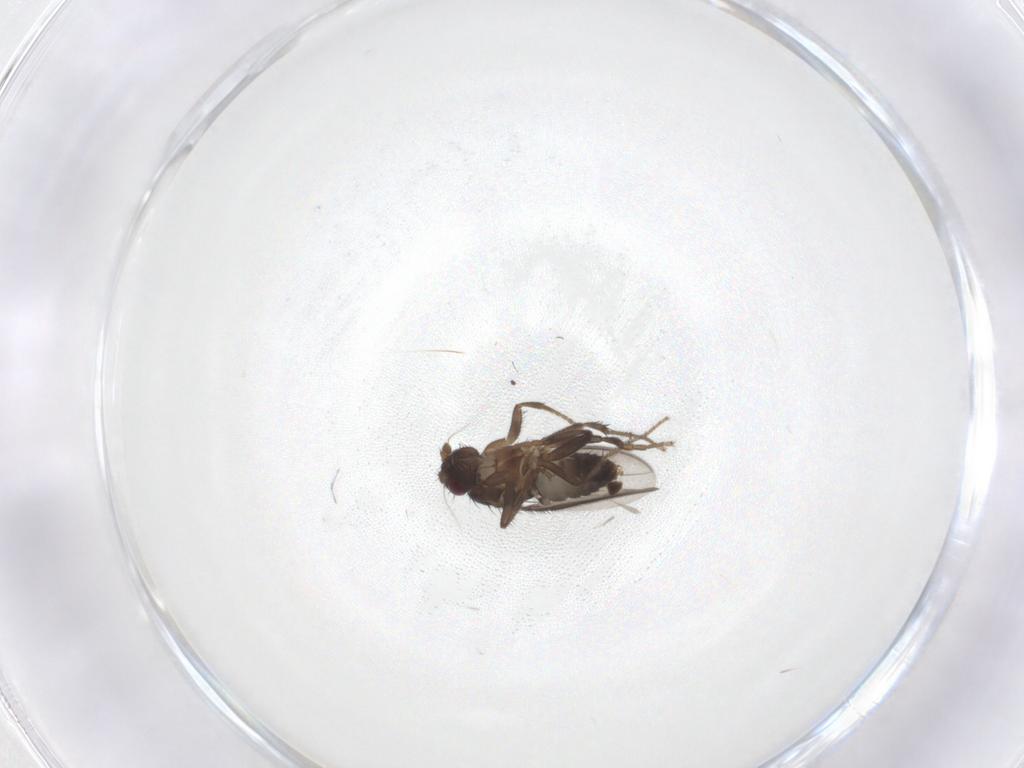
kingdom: Animalia
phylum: Arthropoda
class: Insecta
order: Diptera
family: Sphaeroceridae
